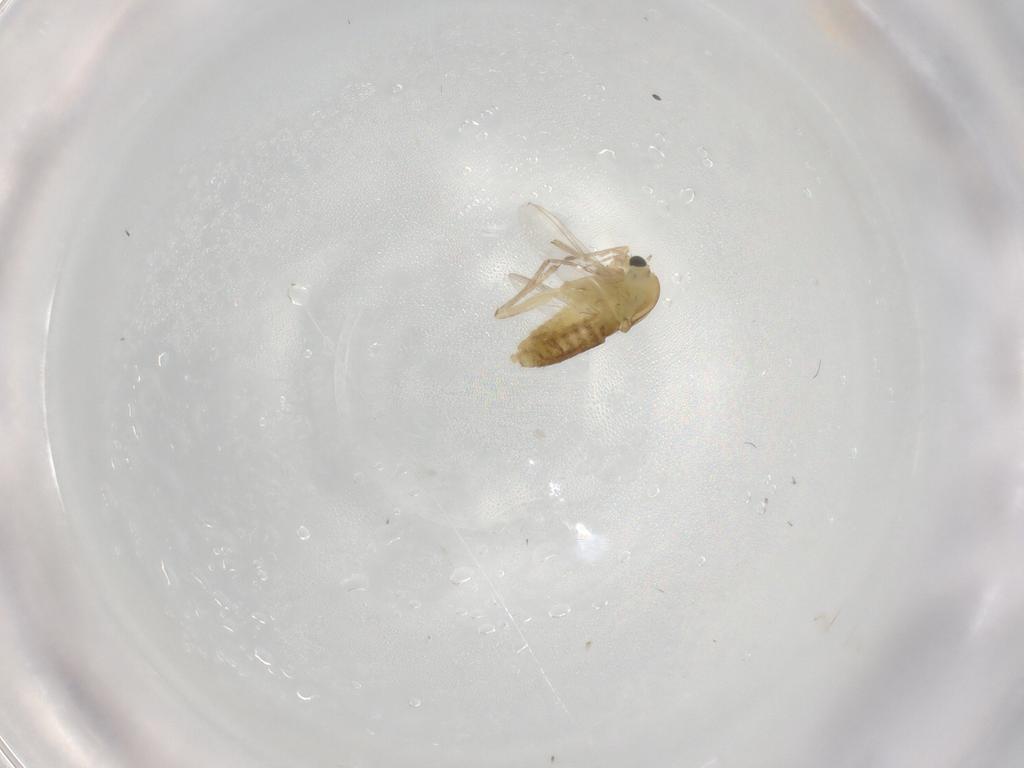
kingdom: Animalia
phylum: Arthropoda
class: Insecta
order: Diptera
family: Chironomidae
